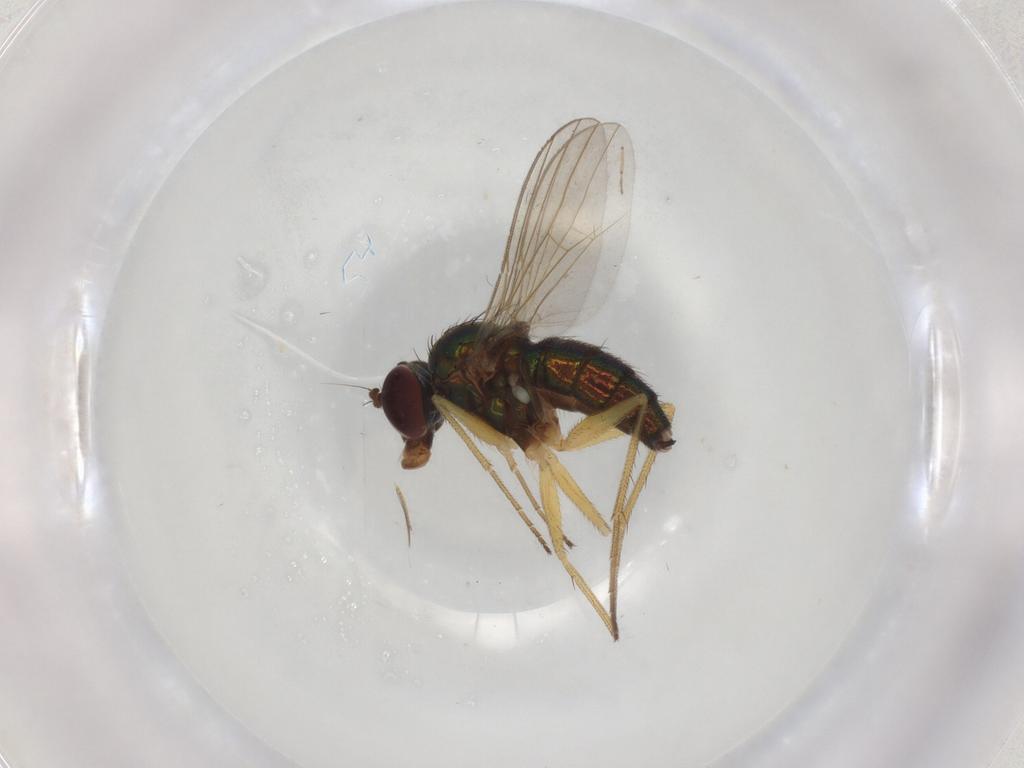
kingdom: Animalia
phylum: Arthropoda
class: Insecta
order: Diptera
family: Dolichopodidae
